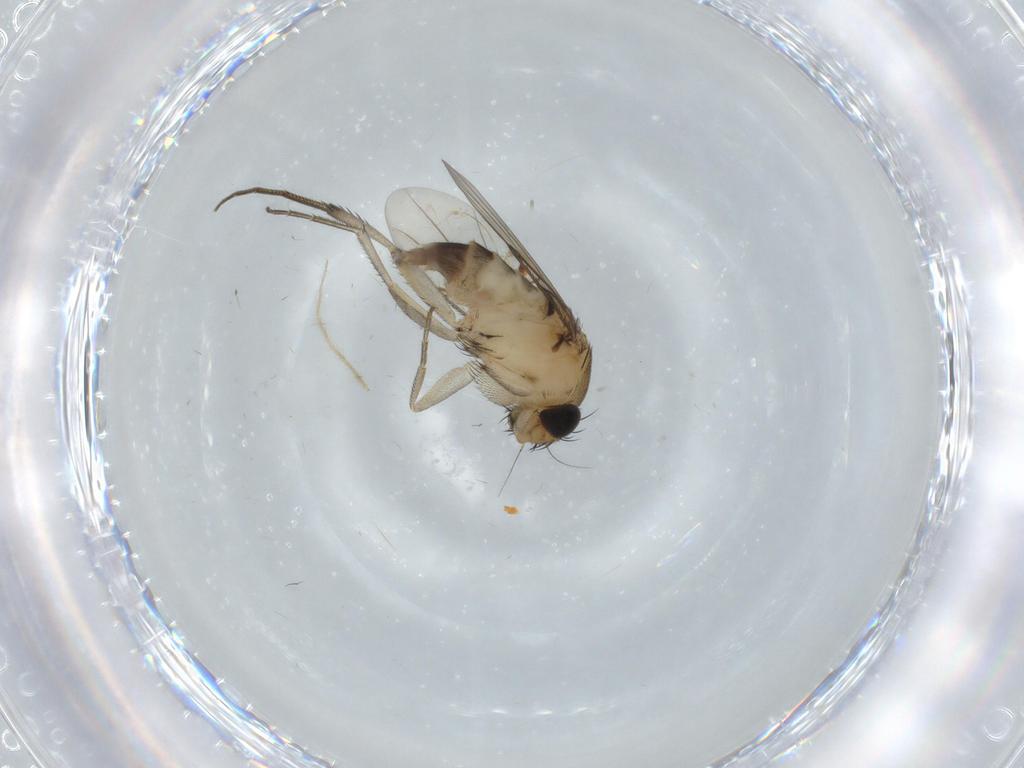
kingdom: Animalia
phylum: Arthropoda
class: Insecta
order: Diptera
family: Phoridae
